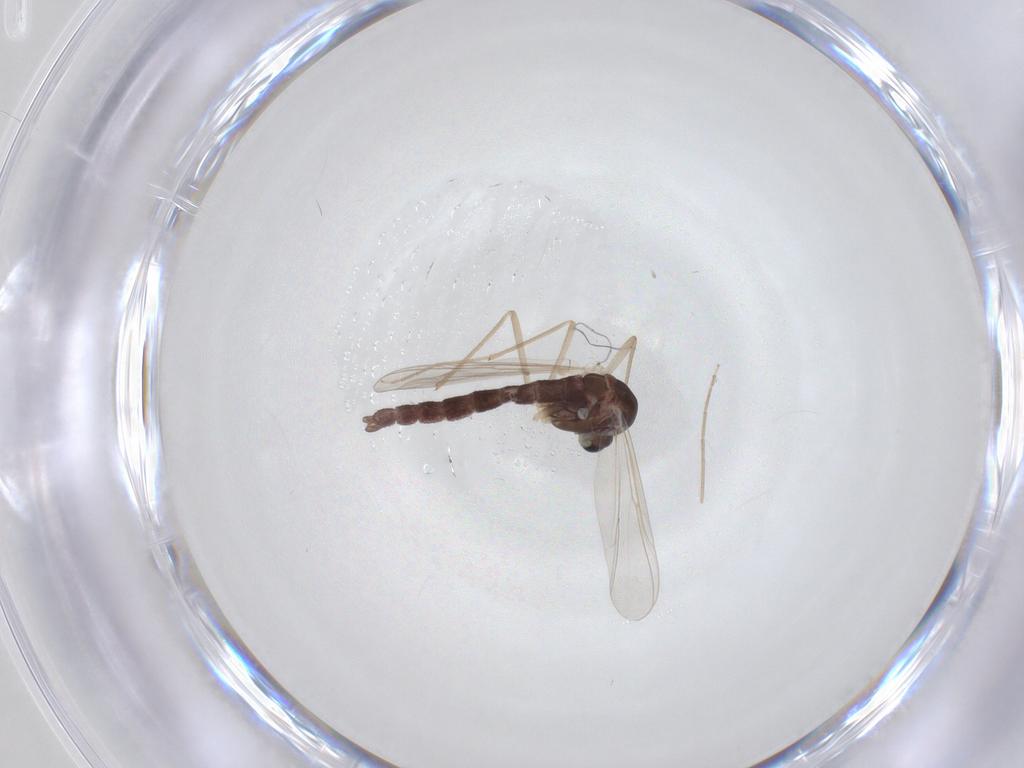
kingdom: Animalia
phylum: Arthropoda
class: Insecta
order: Diptera
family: Chironomidae
